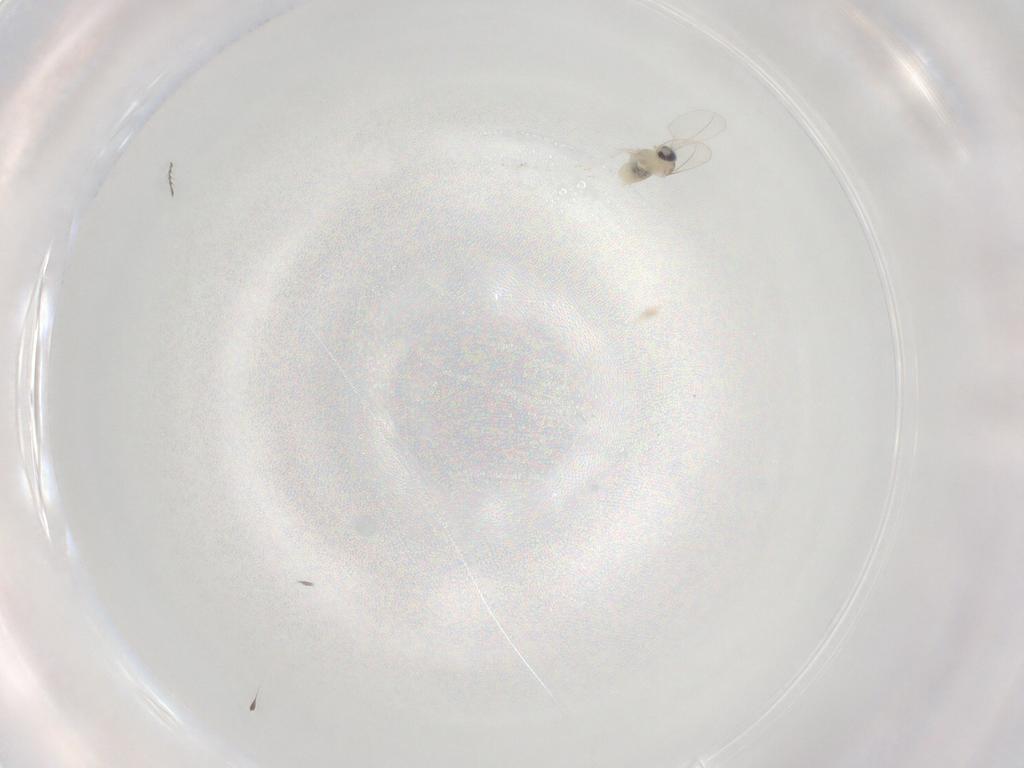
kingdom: Animalia
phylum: Arthropoda
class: Insecta
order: Diptera
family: Cecidomyiidae
